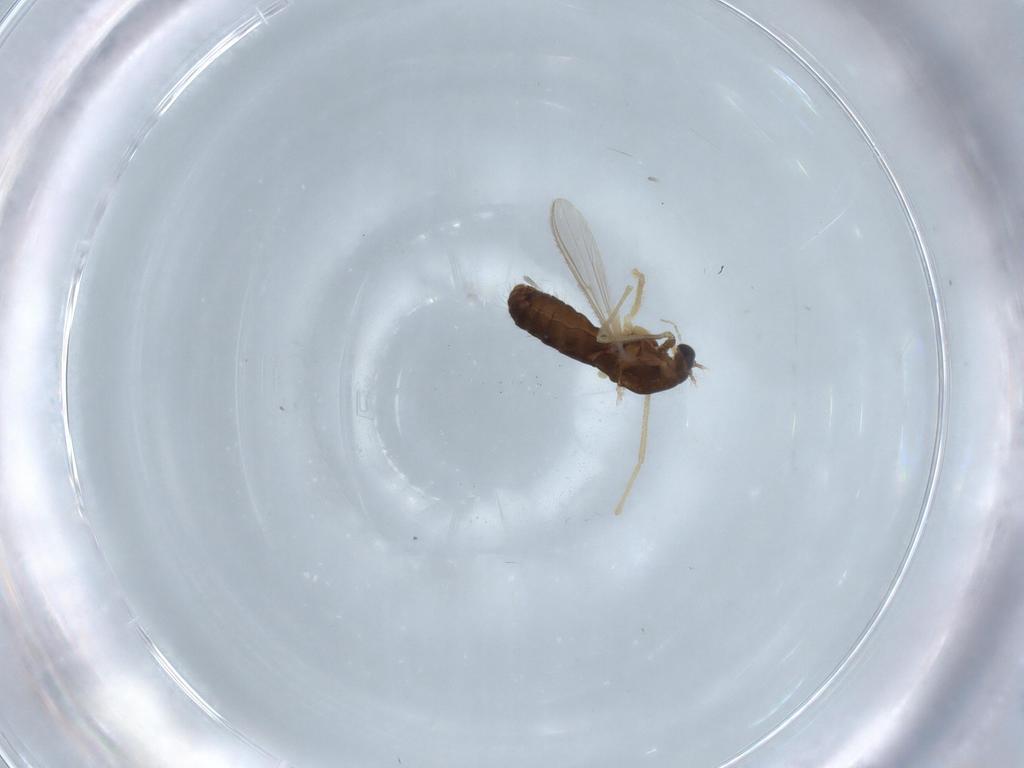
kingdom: Animalia
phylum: Arthropoda
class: Insecta
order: Diptera
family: Chironomidae
